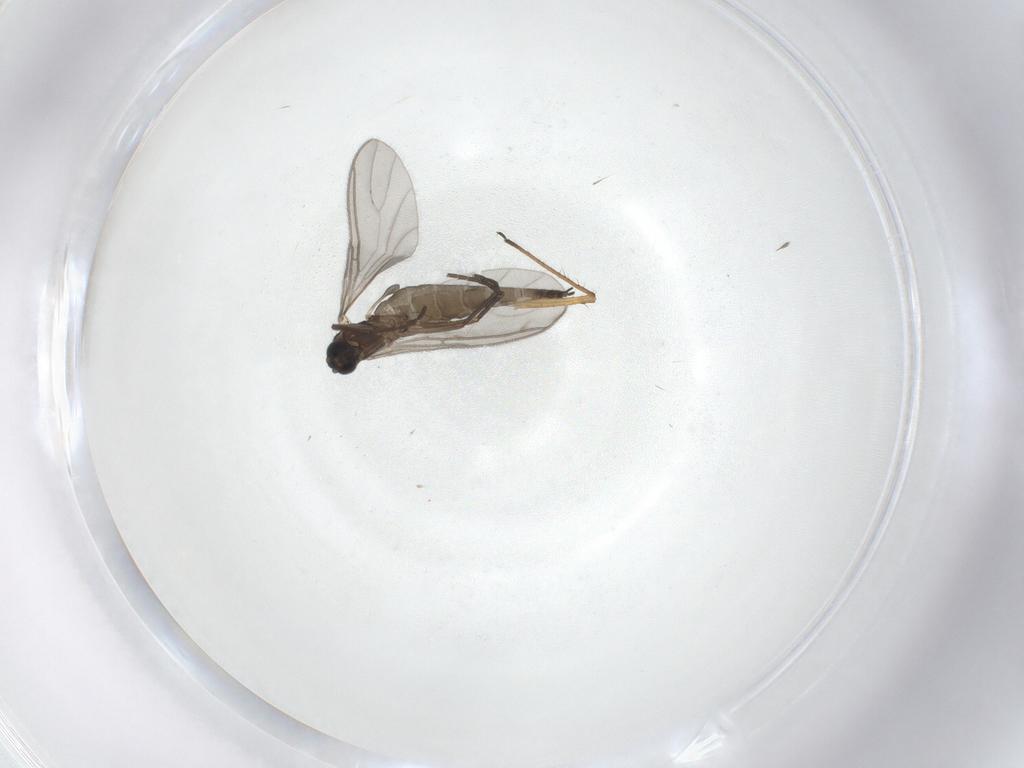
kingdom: Animalia
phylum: Arthropoda
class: Insecta
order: Diptera
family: Sciaridae
